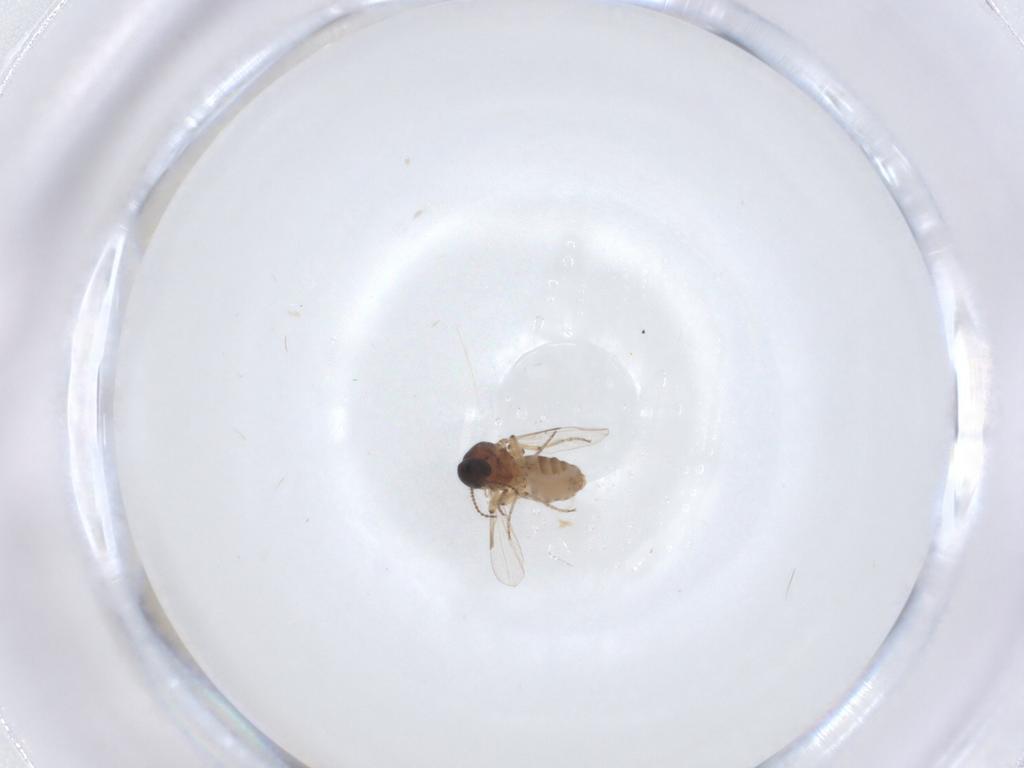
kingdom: Animalia
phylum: Arthropoda
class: Insecta
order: Diptera
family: Ceratopogonidae
